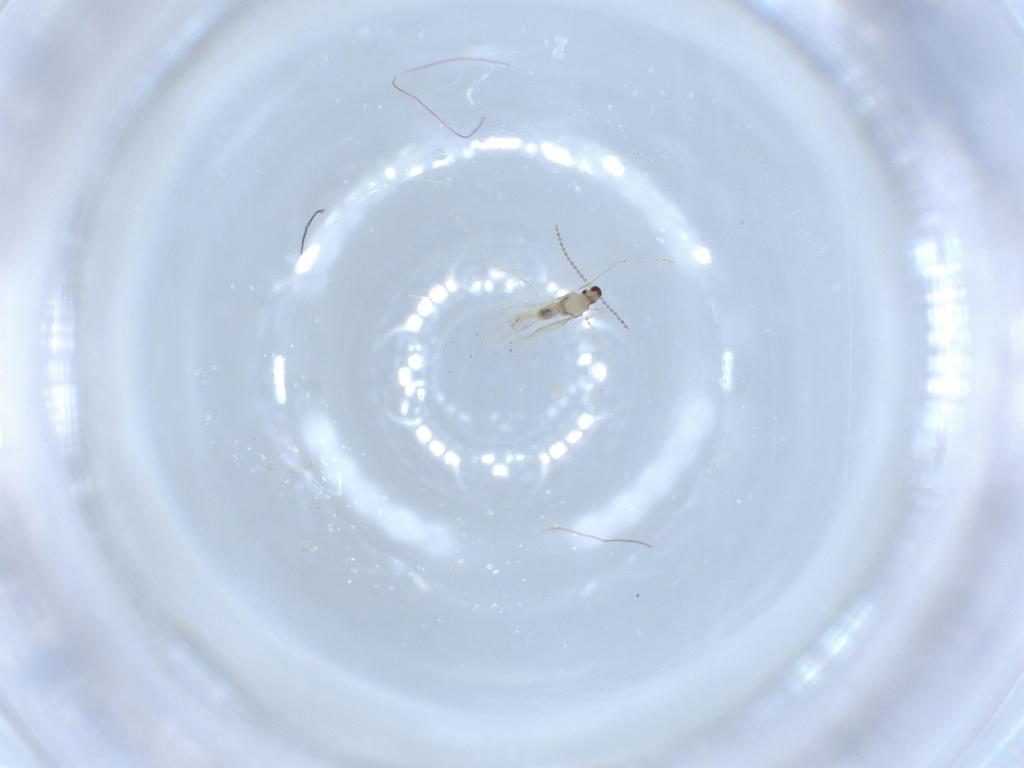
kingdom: Animalia
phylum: Arthropoda
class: Insecta
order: Diptera
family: Cecidomyiidae
